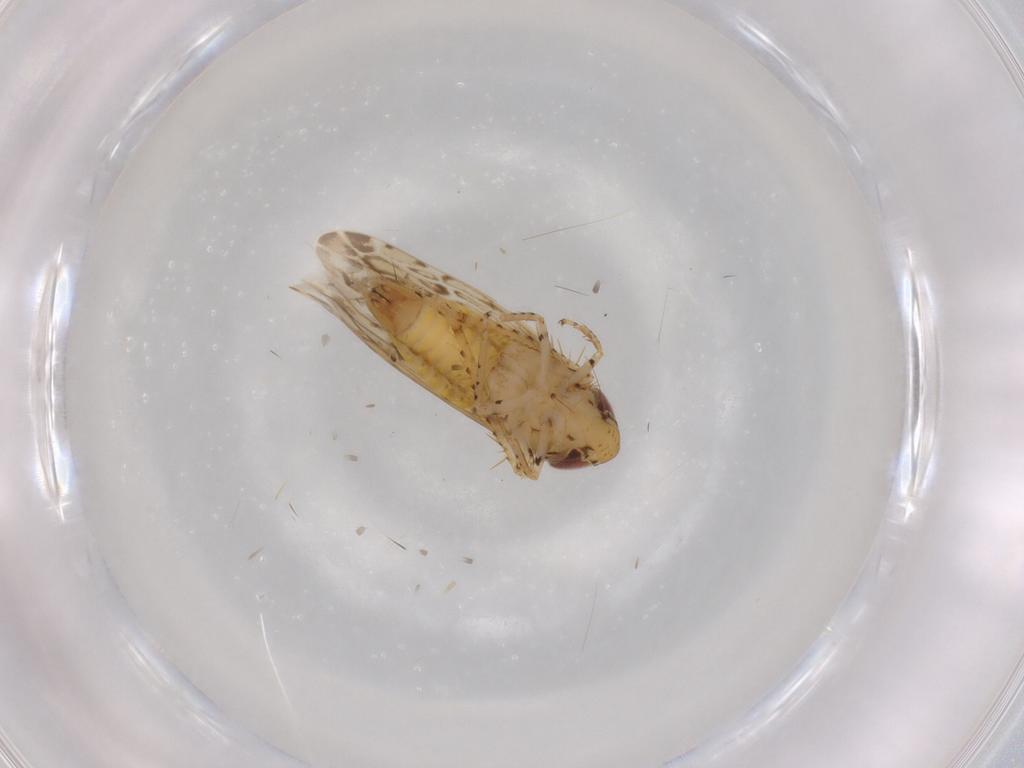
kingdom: Animalia
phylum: Arthropoda
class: Insecta
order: Hemiptera
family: Cicadellidae
